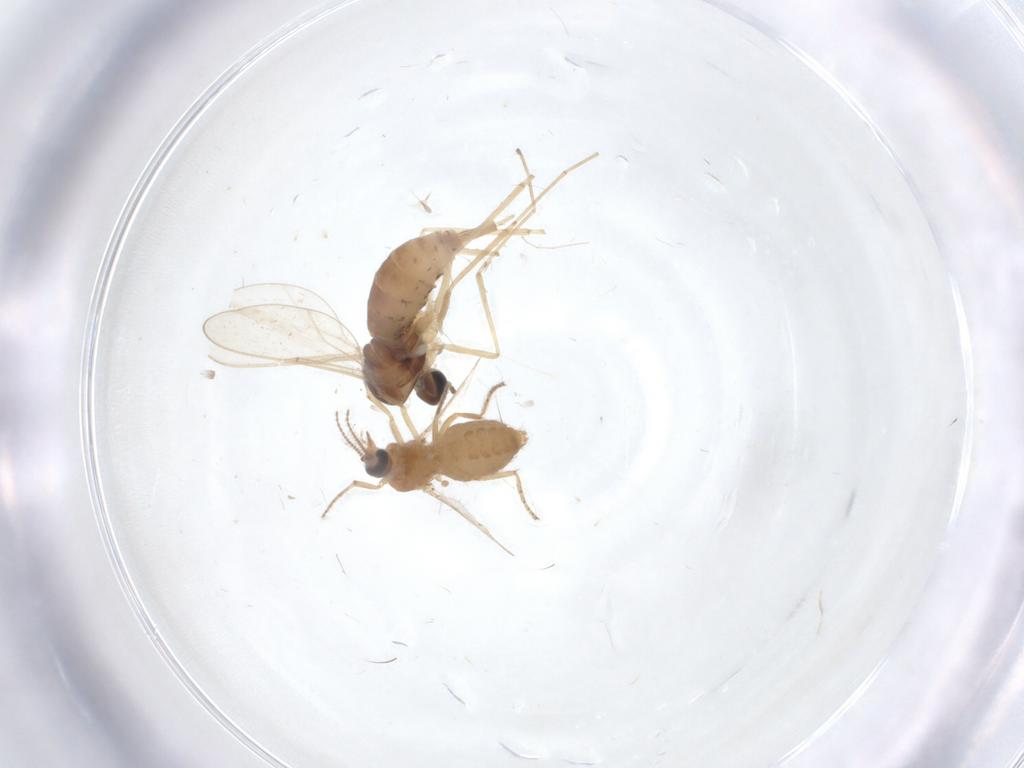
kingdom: Animalia
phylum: Arthropoda
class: Insecta
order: Diptera
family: Ceratopogonidae
